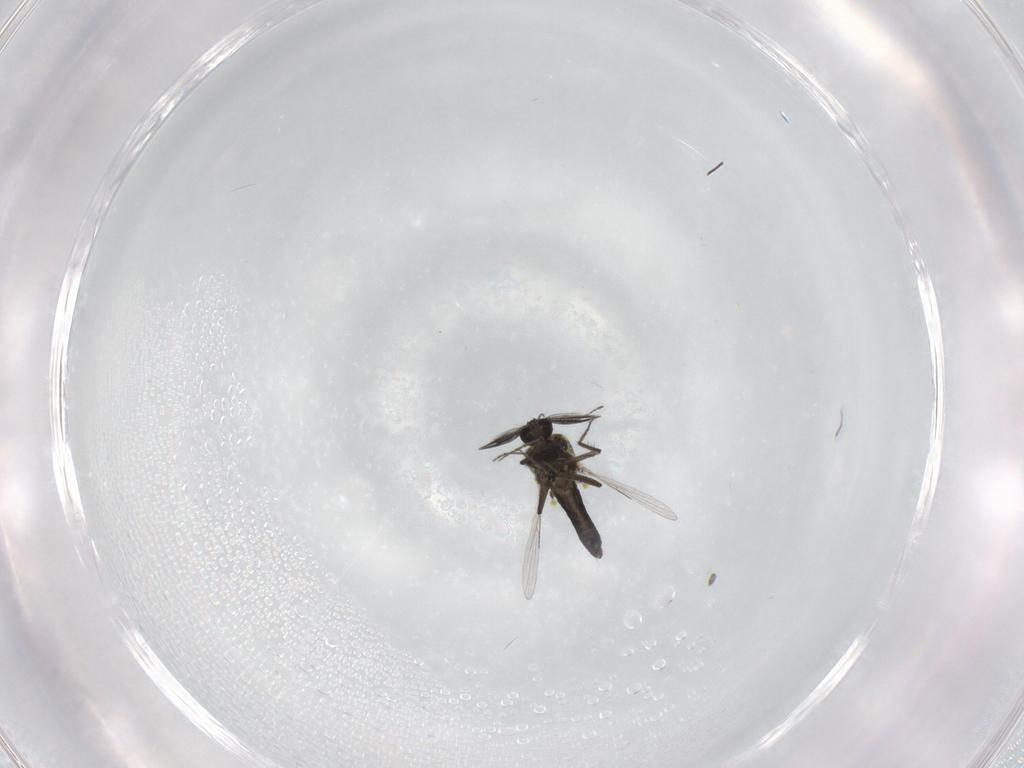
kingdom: Animalia
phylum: Arthropoda
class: Insecta
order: Diptera
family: Ceratopogonidae
